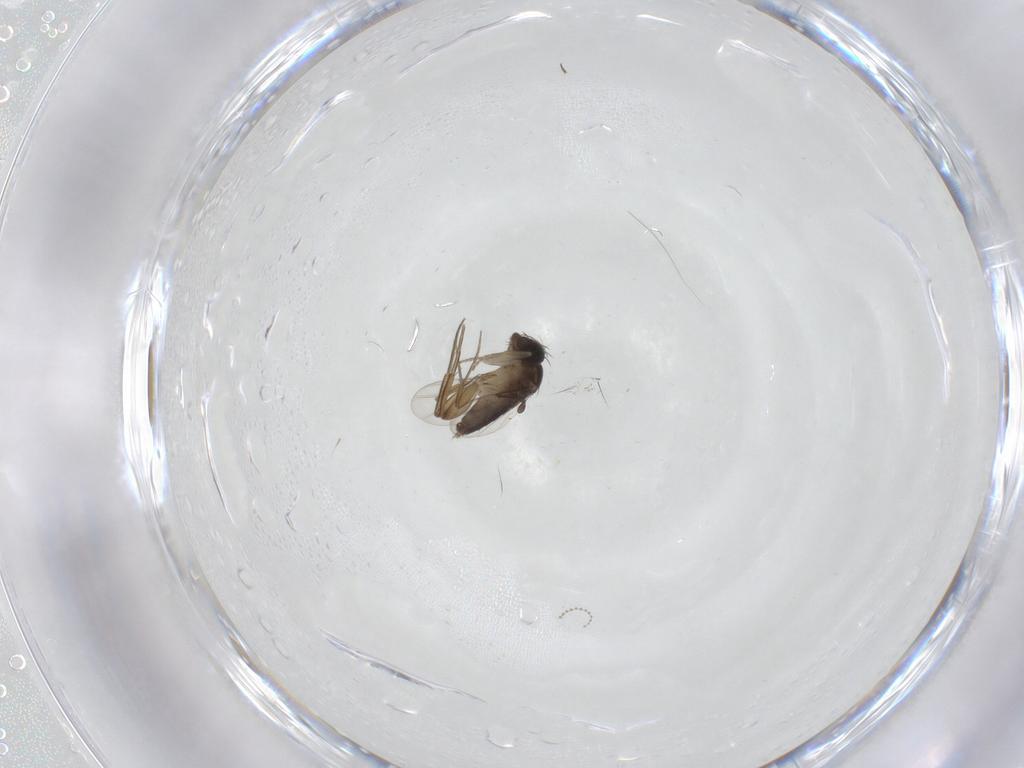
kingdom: Animalia
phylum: Arthropoda
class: Insecta
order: Diptera
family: Phoridae
